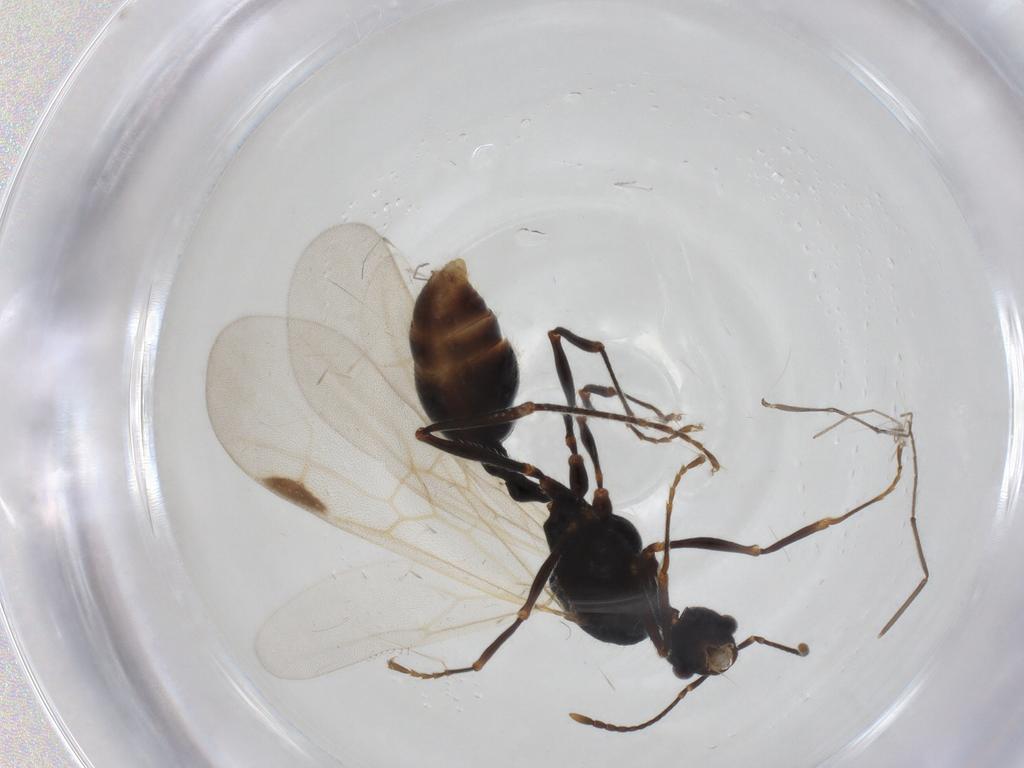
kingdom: Animalia
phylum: Arthropoda
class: Insecta
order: Hymenoptera
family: Formicidae
